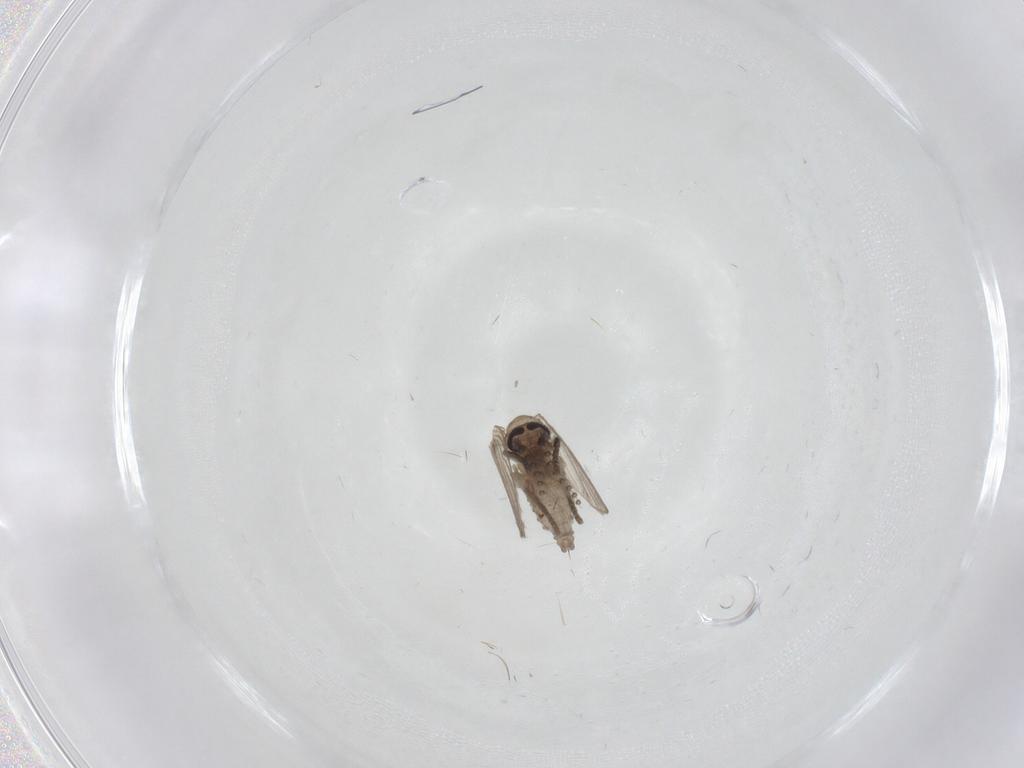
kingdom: Animalia
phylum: Arthropoda
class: Insecta
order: Diptera
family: Psychodidae
